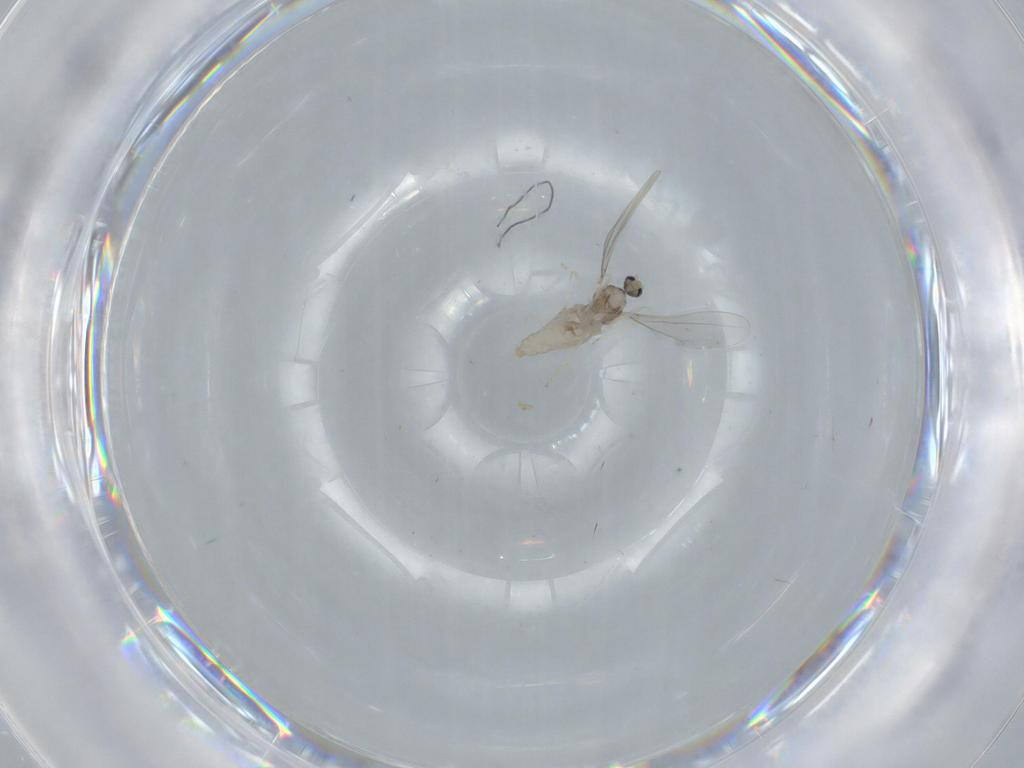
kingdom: Animalia
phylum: Arthropoda
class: Insecta
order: Diptera
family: Cecidomyiidae
